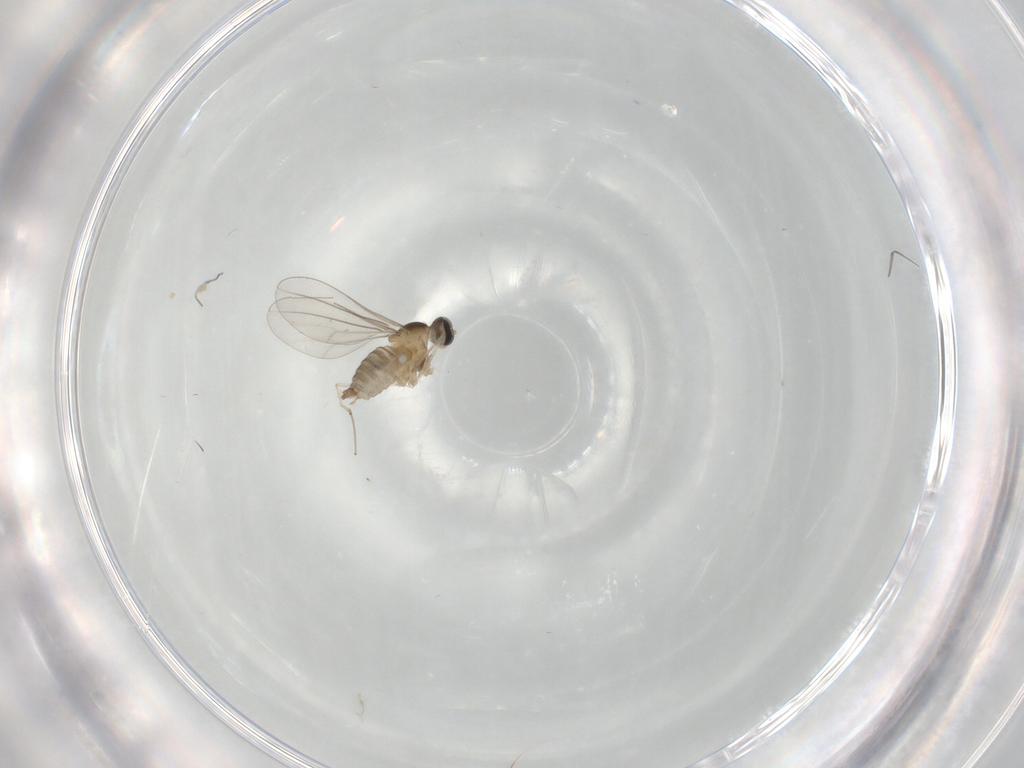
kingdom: Animalia
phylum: Arthropoda
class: Insecta
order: Diptera
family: Cecidomyiidae
